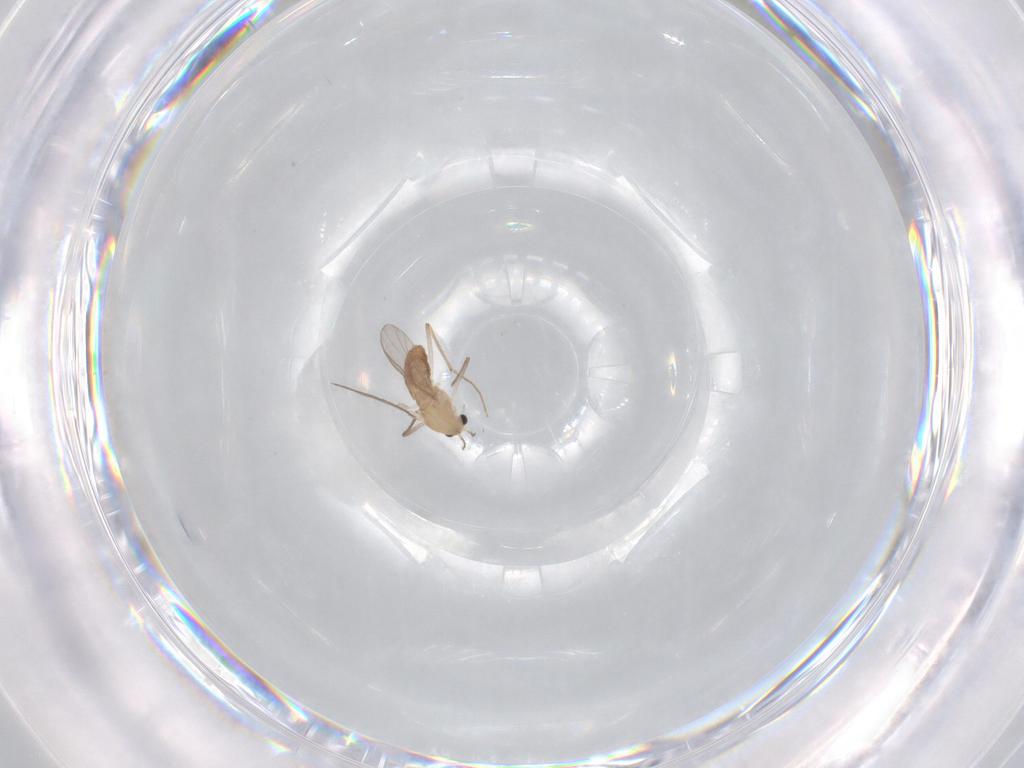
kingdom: Animalia
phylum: Arthropoda
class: Insecta
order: Diptera
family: Chironomidae
